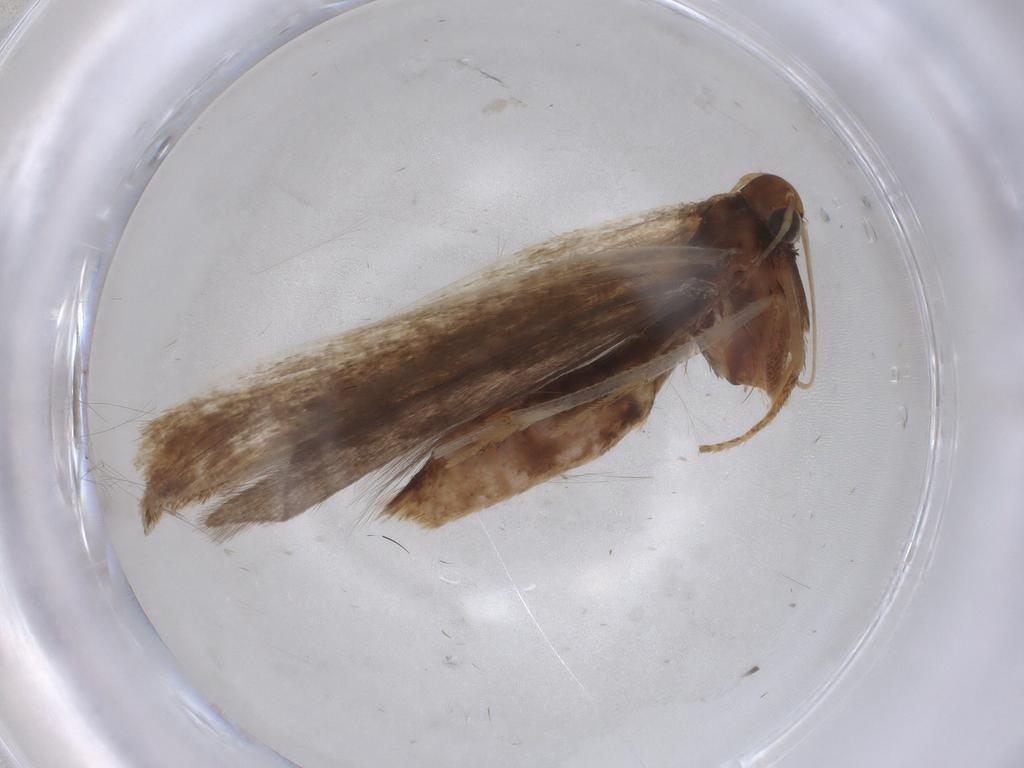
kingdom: Animalia
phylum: Arthropoda
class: Insecta
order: Lepidoptera
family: Gelechiidae
